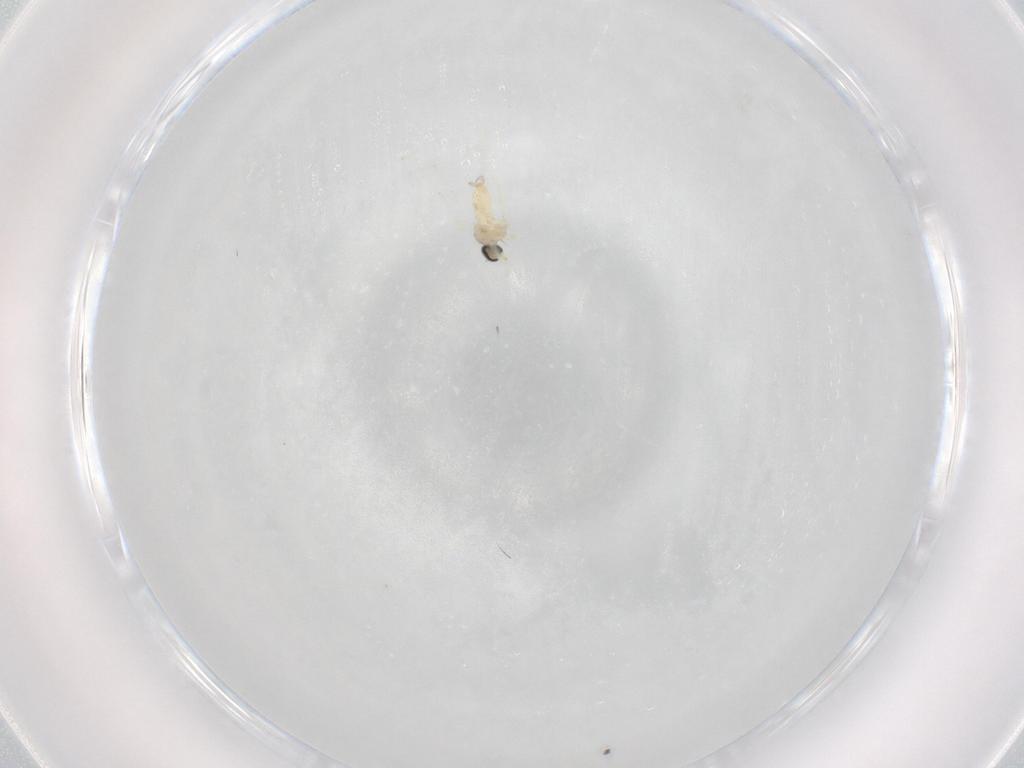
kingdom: Animalia
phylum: Arthropoda
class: Insecta
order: Diptera
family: Cecidomyiidae
